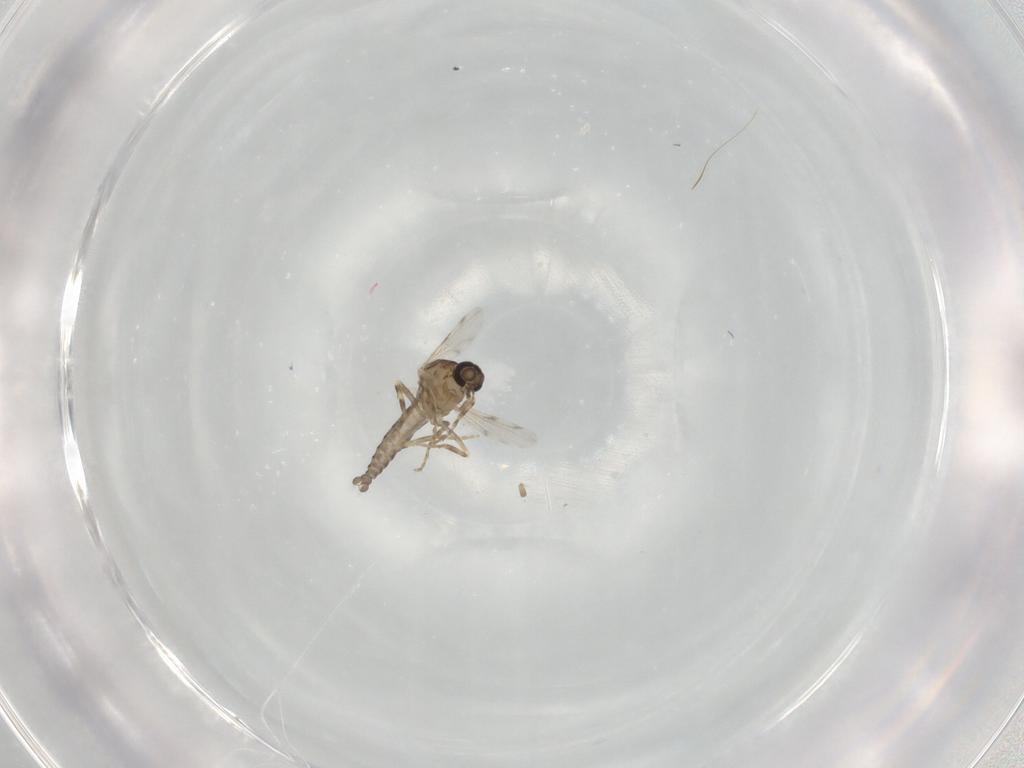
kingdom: Animalia
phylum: Arthropoda
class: Insecta
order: Diptera
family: Ceratopogonidae
